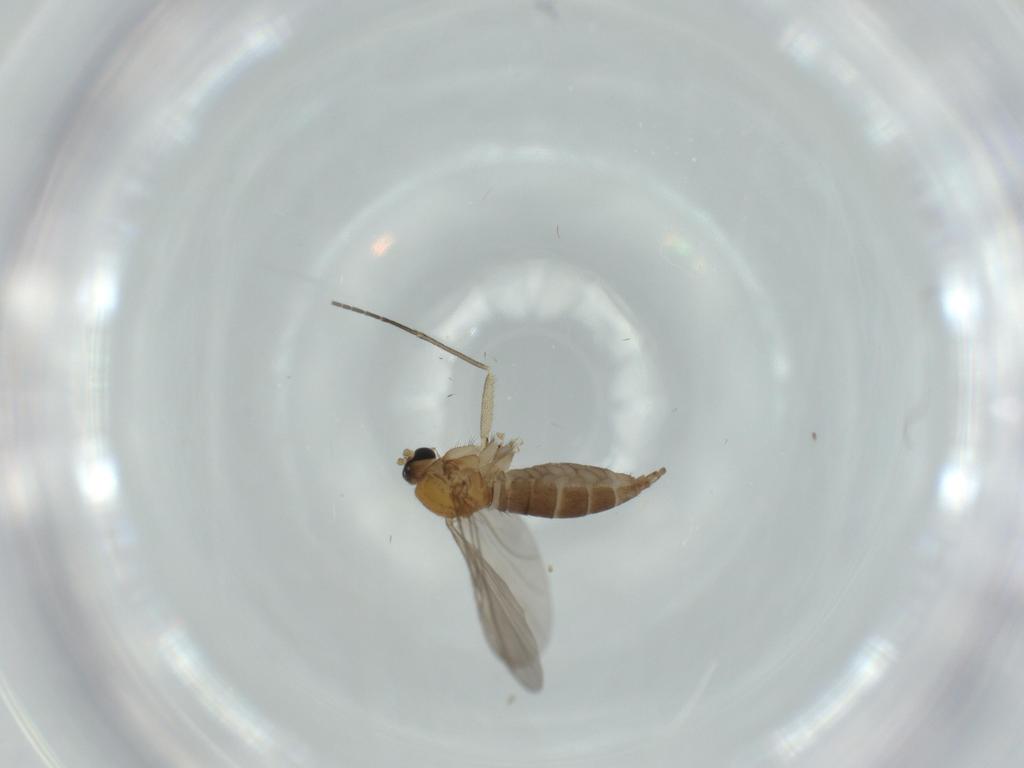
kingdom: Animalia
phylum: Arthropoda
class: Insecta
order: Diptera
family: Sciaridae
